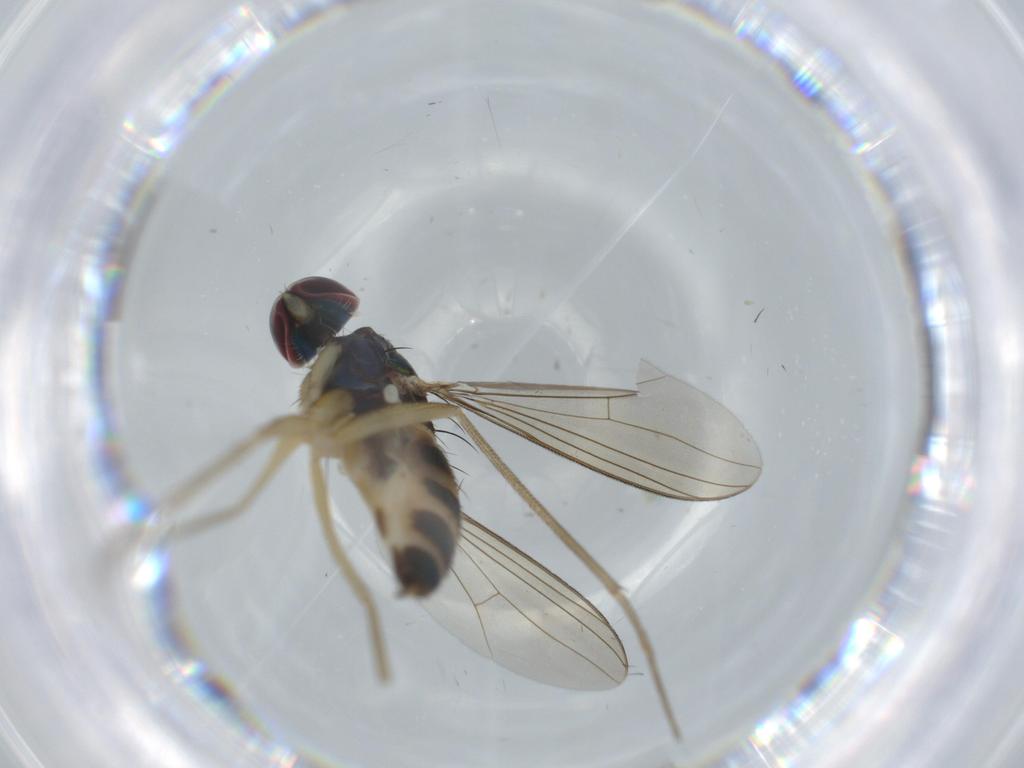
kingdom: Animalia
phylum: Arthropoda
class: Insecta
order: Diptera
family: Dolichopodidae
